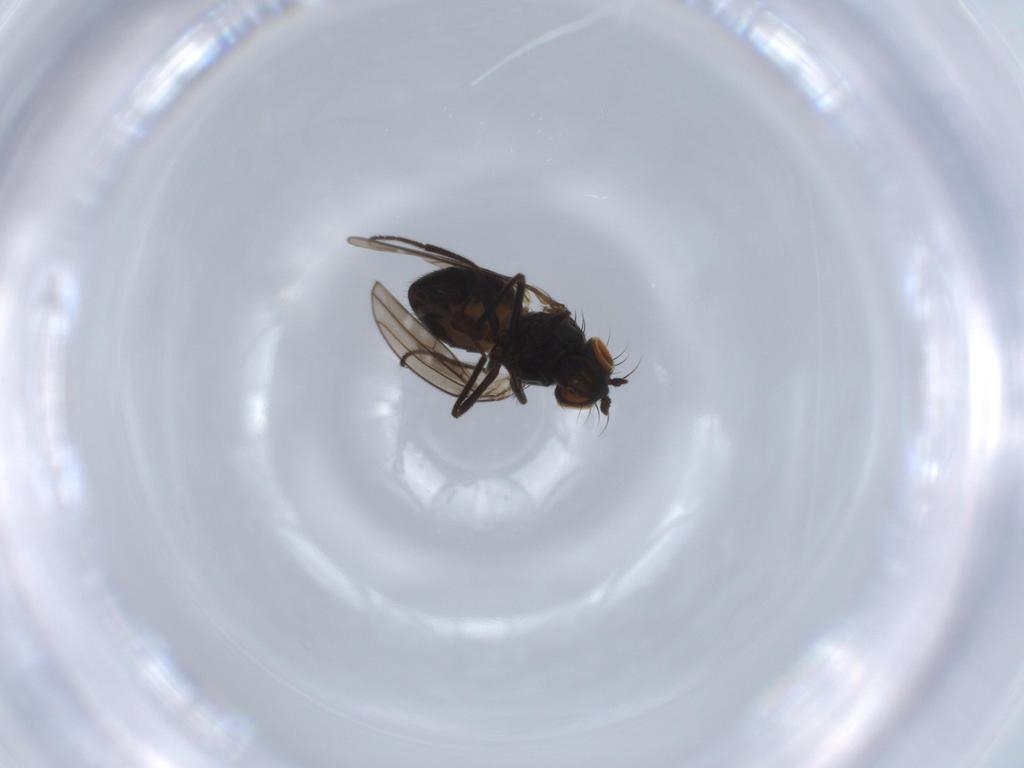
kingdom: Animalia
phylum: Arthropoda
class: Insecta
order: Diptera
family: Ephydridae
